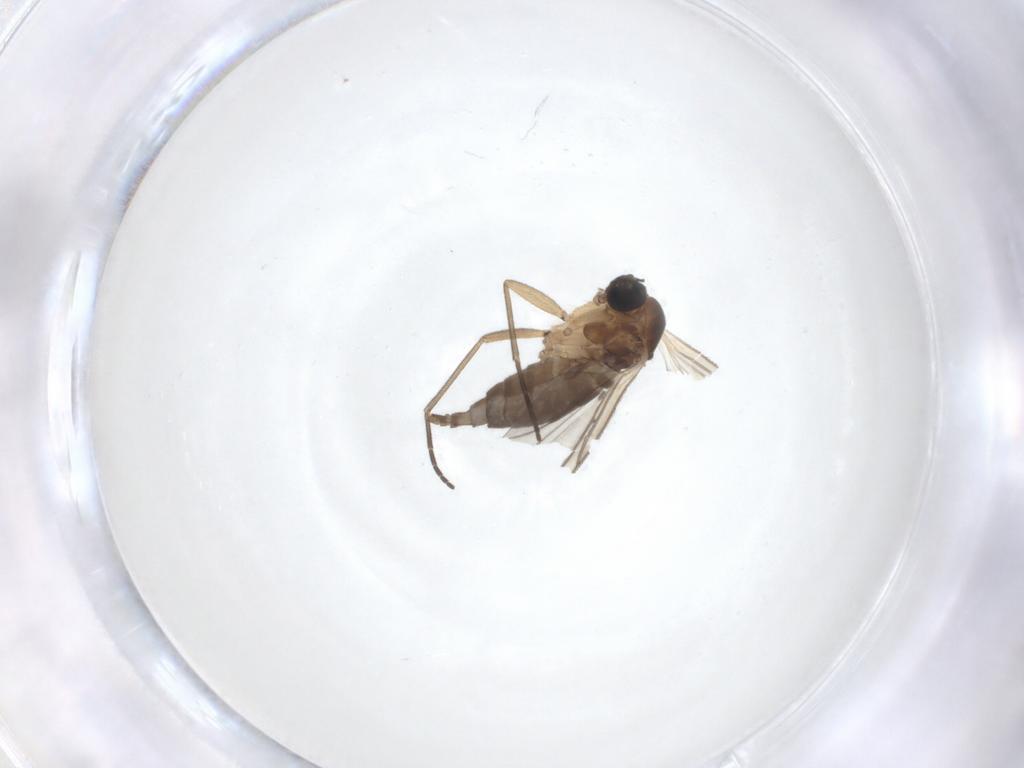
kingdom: Animalia
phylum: Arthropoda
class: Insecta
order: Diptera
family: Sciaridae
